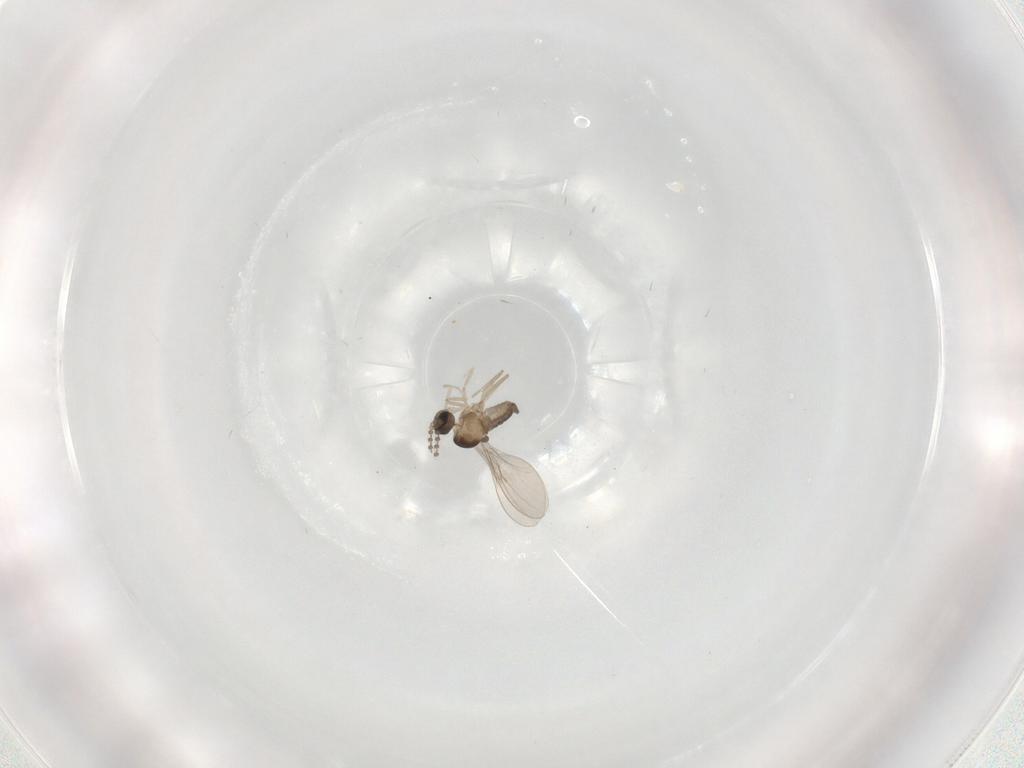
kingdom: Animalia
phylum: Arthropoda
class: Insecta
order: Diptera
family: Cecidomyiidae
